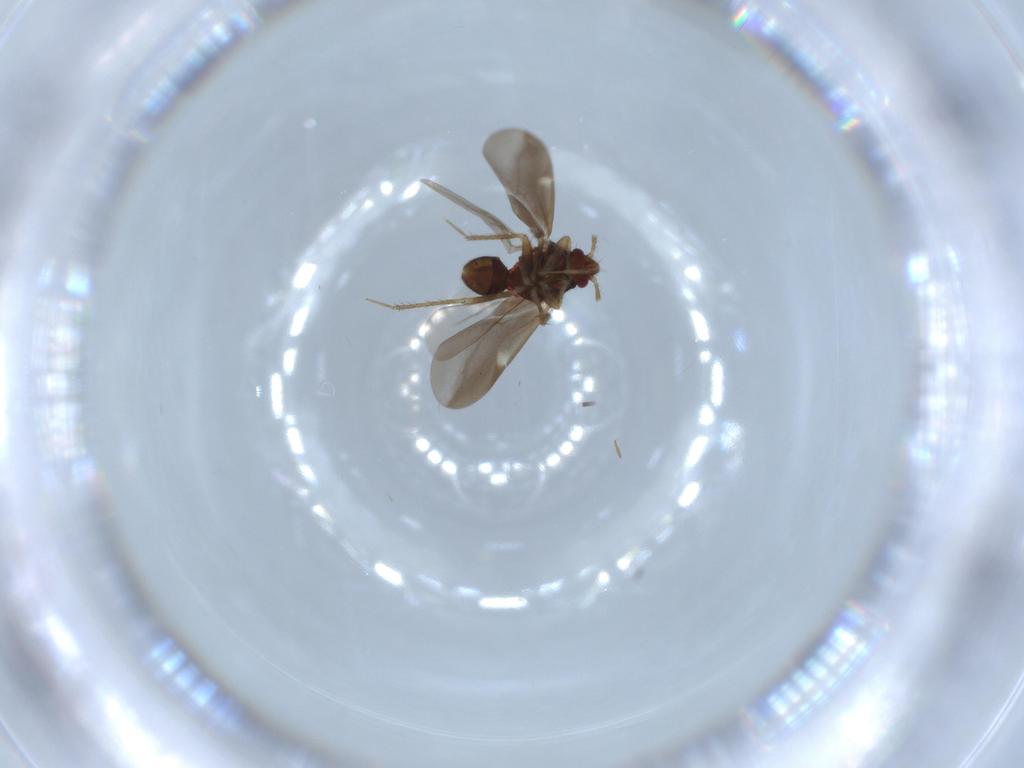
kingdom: Animalia
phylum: Arthropoda
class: Insecta
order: Hemiptera
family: Ceratocombidae
